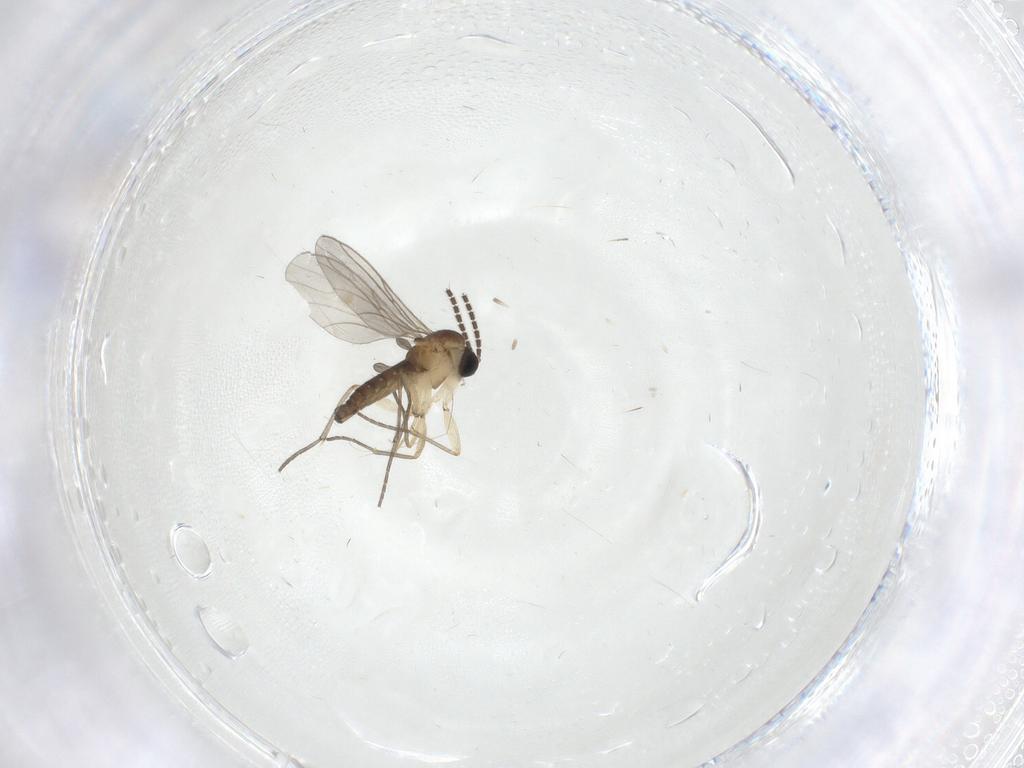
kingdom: Animalia
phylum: Arthropoda
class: Insecta
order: Diptera
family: Sciaridae
